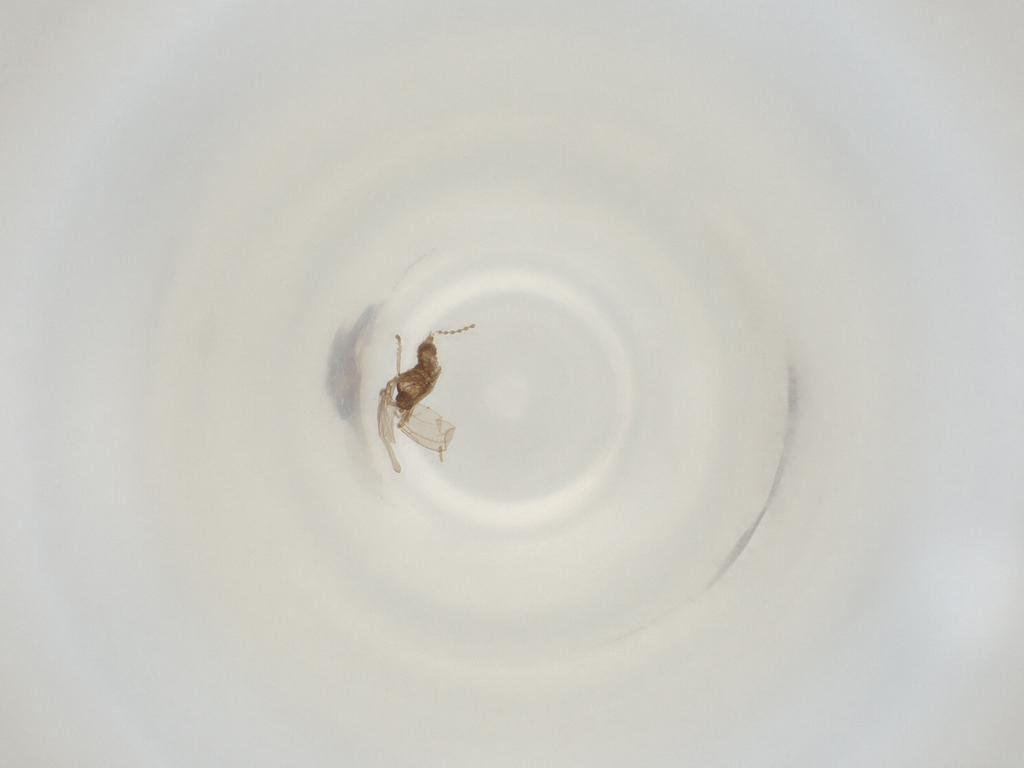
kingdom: Animalia
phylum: Arthropoda
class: Insecta
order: Diptera
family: Cecidomyiidae
